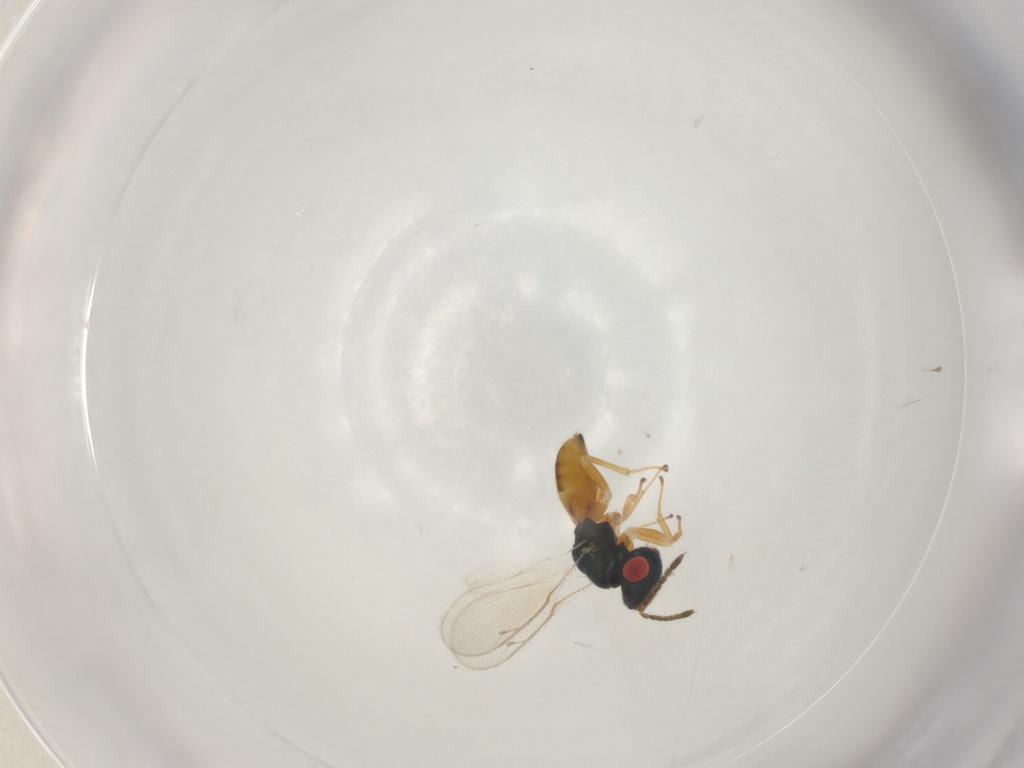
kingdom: Animalia
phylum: Arthropoda
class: Insecta
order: Hymenoptera
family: Pteromalidae
